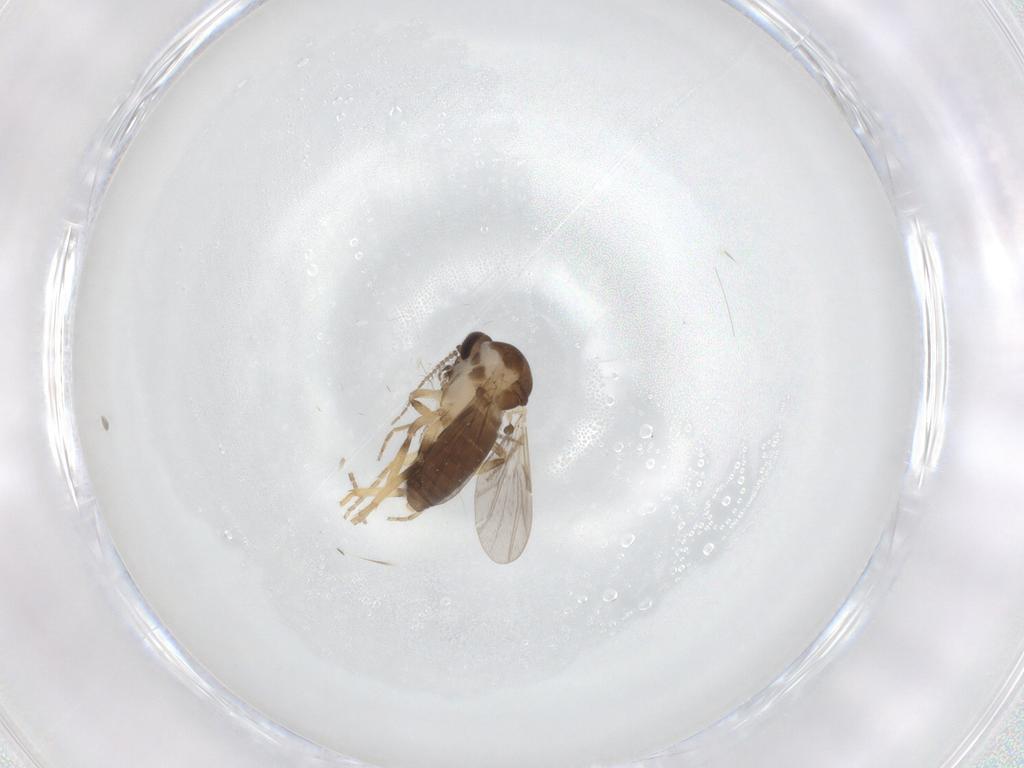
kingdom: Animalia
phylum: Arthropoda
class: Insecta
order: Diptera
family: Ceratopogonidae
